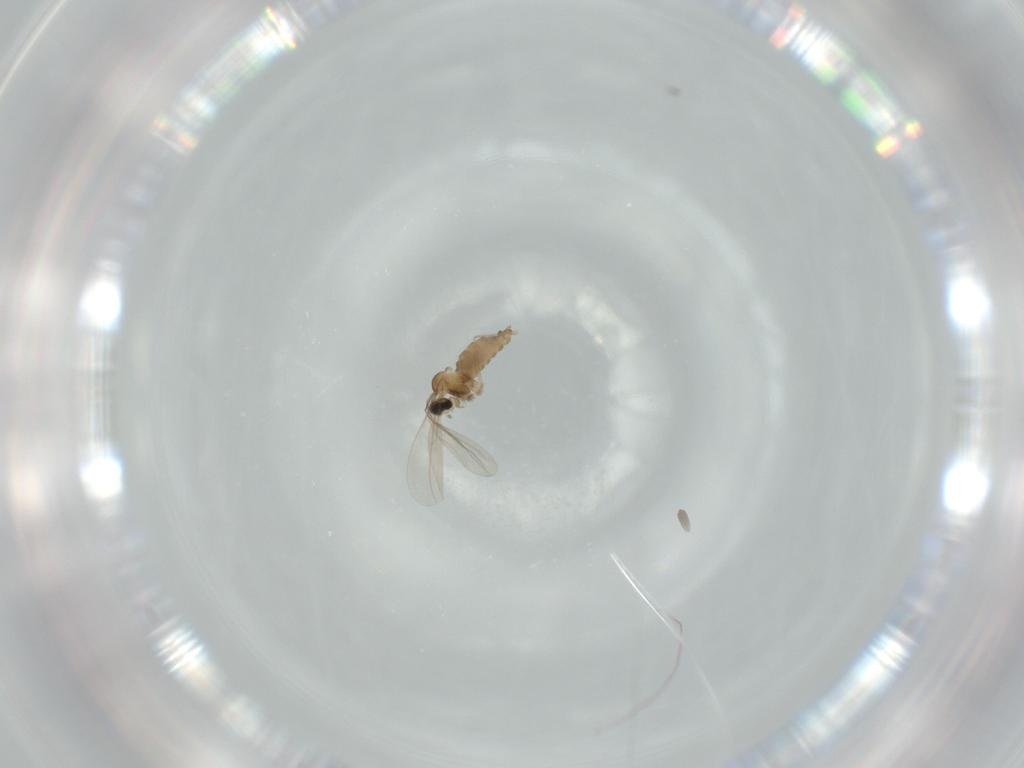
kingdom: Animalia
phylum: Arthropoda
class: Insecta
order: Diptera
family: Cecidomyiidae
